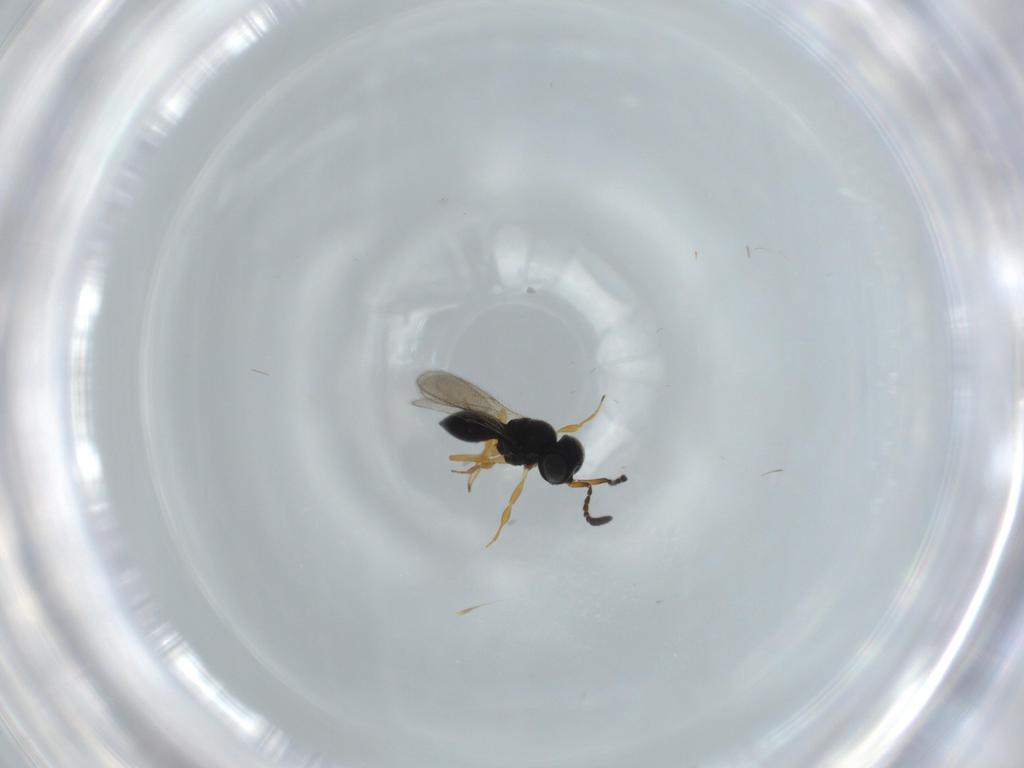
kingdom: Animalia
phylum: Arthropoda
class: Insecta
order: Hymenoptera
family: Scelionidae
